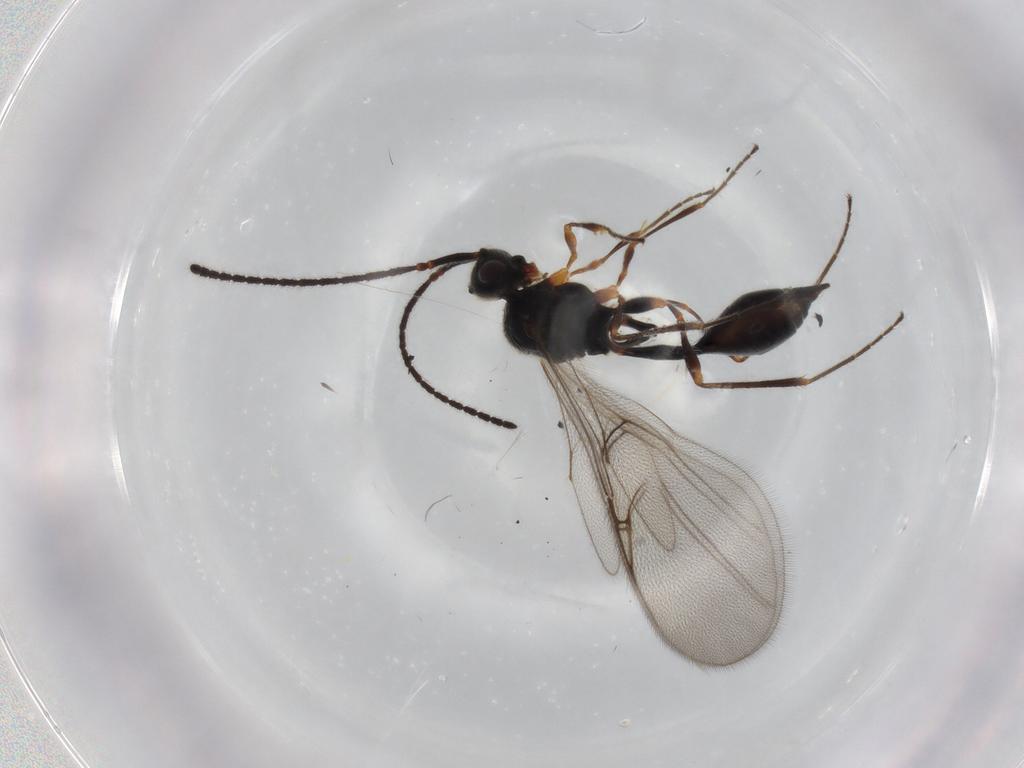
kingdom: Animalia
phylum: Arthropoda
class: Insecta
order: Hymenoptera
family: Diapriidae
